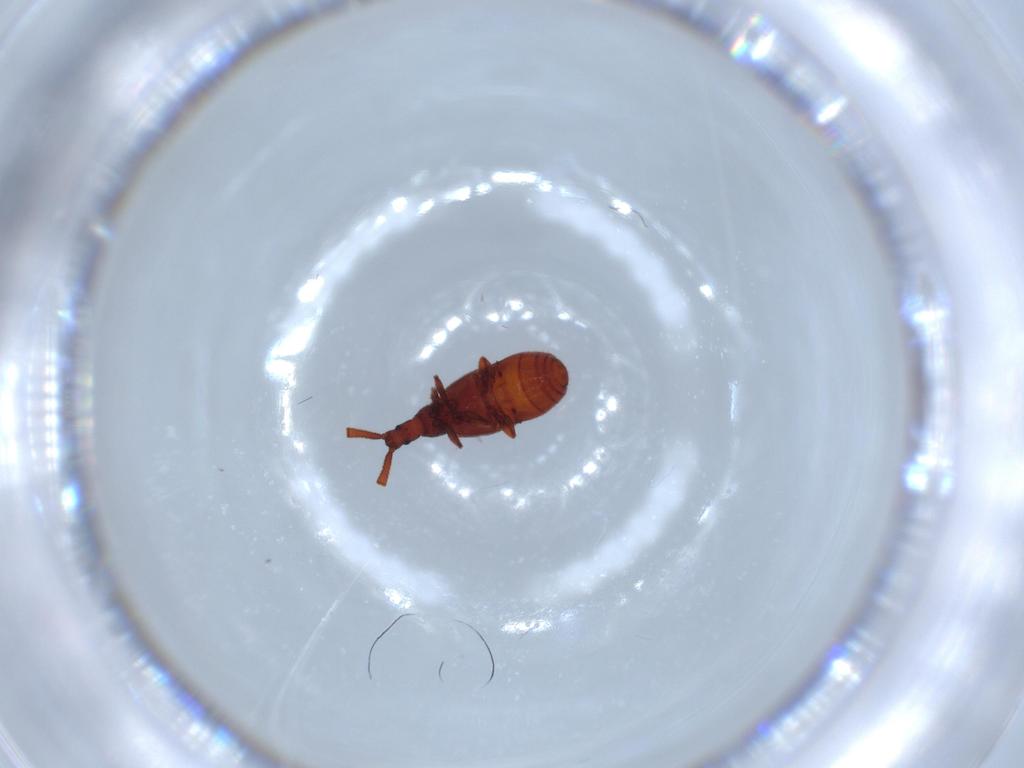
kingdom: Animalia
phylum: Arthropoda
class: Insecta
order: Coleoptera
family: Staphylinidae
